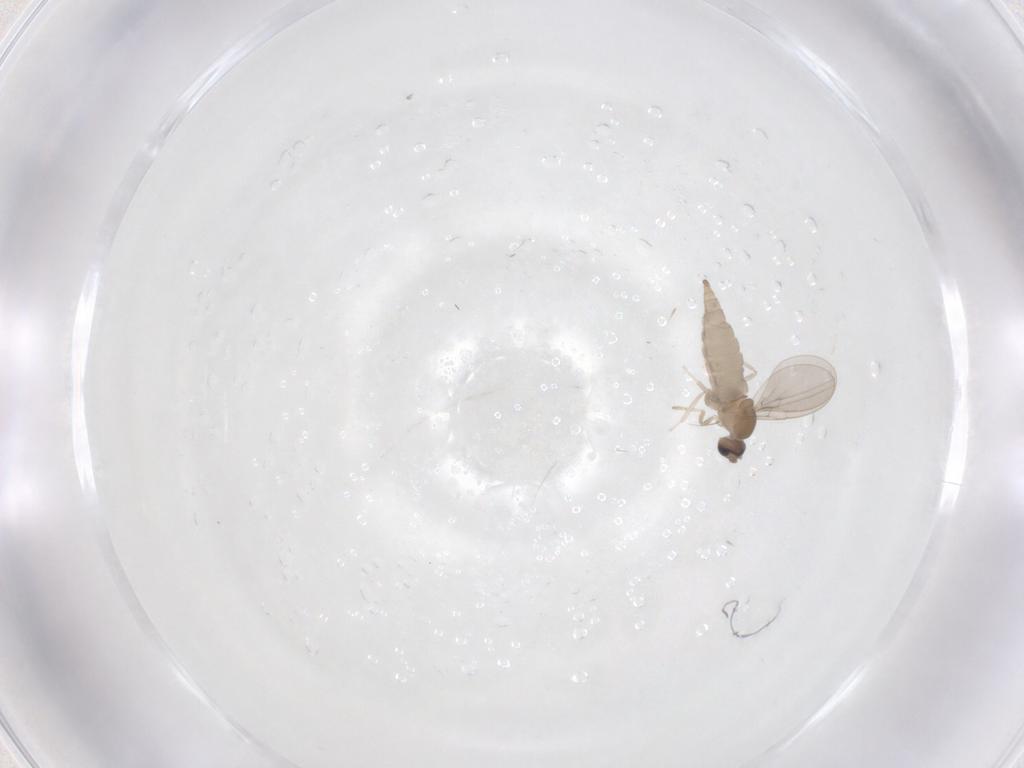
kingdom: Animalia
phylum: Arthropoda
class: Insecta
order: Diptera
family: Cecidomyiidae
